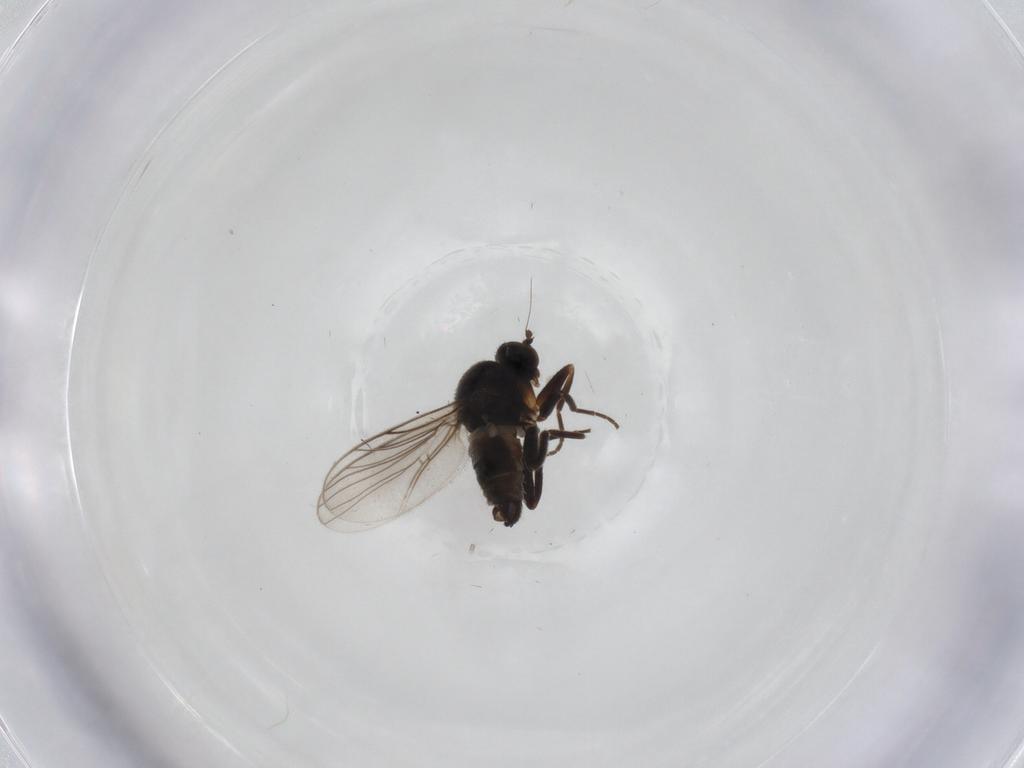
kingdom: Animalia
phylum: Arthropoda
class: Insecta
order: Diptera
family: Hybotidae
